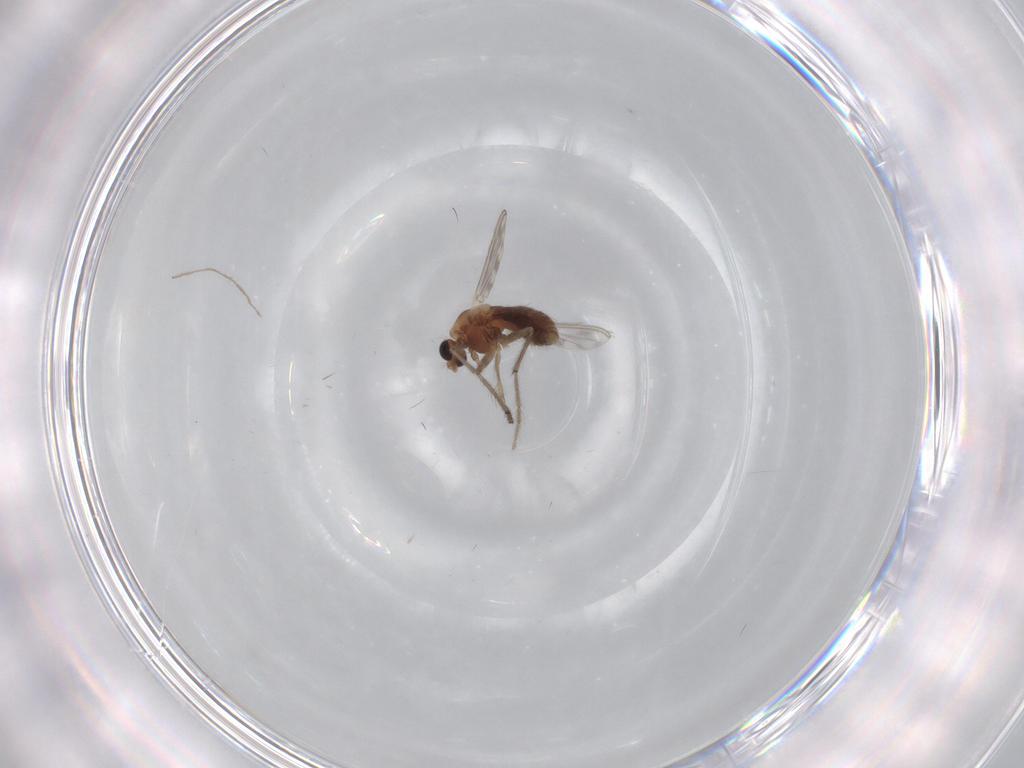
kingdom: Animalia
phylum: Arthropoda
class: Insecta
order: Diptera
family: Chironomidae
